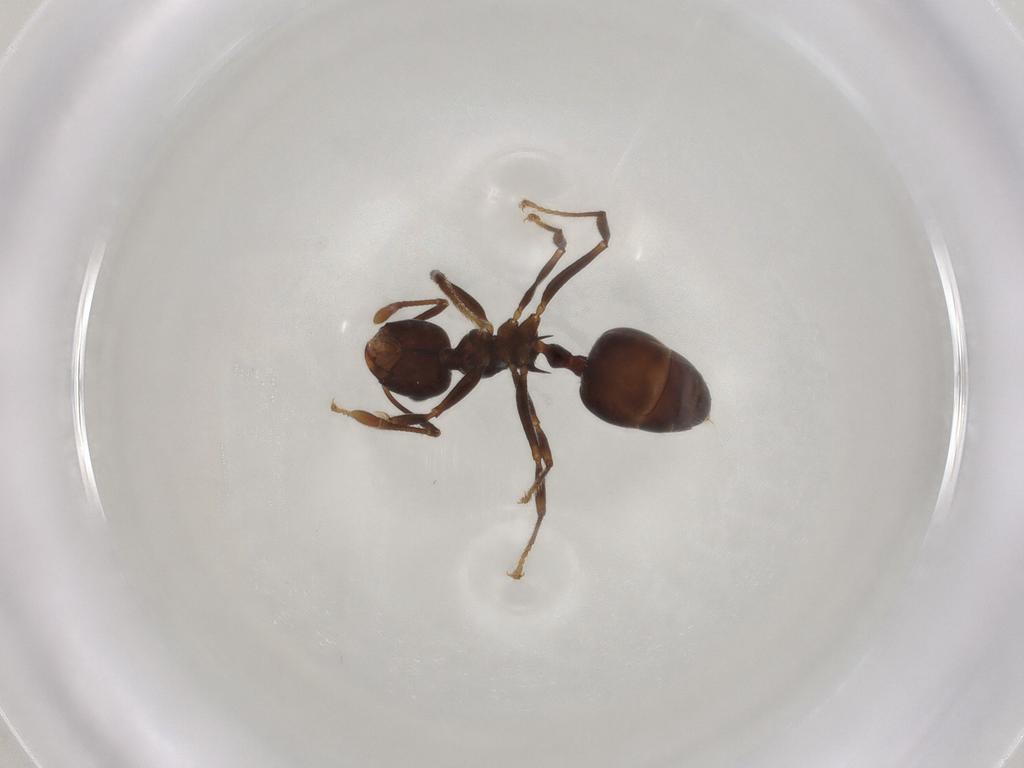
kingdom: Animalia
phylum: Arthropoda
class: Insecta
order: Hymenoptera
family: Formicidae
